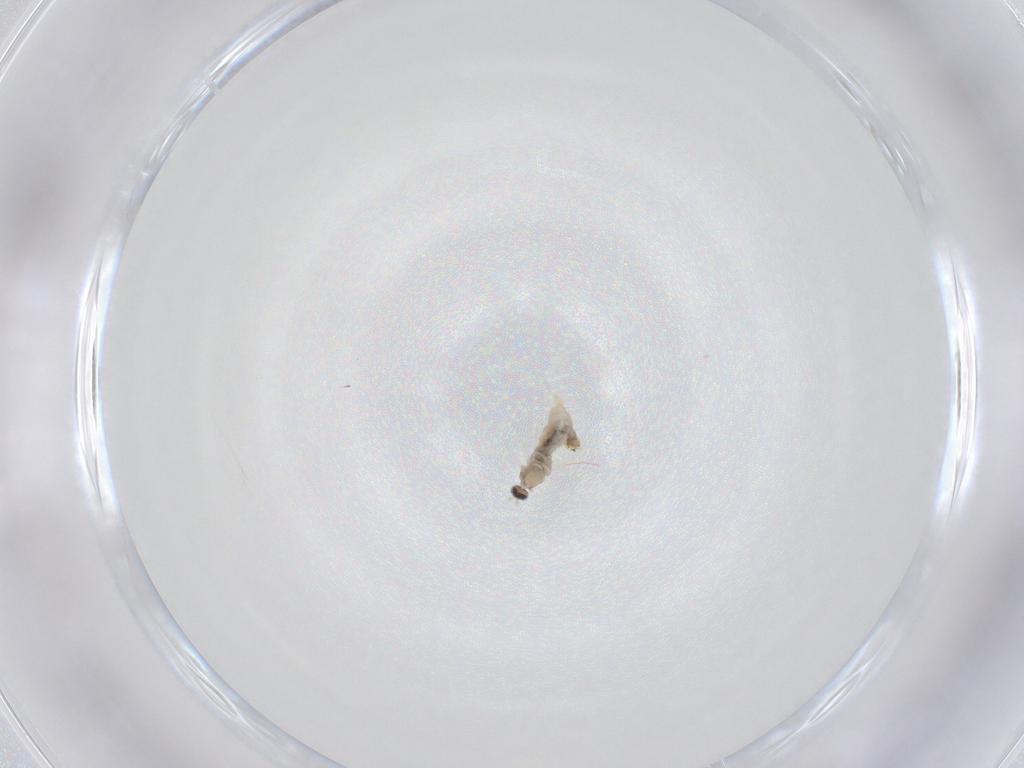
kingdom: Animalia
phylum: Arthropoda
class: Insecta
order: Diptera
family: Cecidomyiidae
